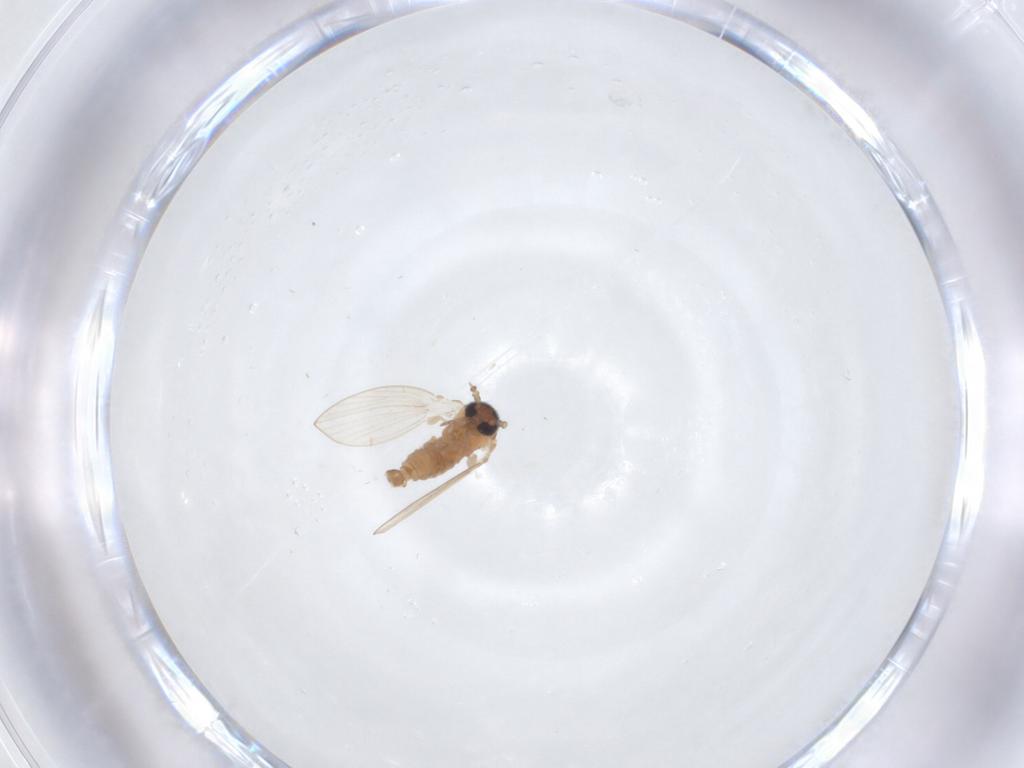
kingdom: Animalia
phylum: Arthropoda
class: Insecta
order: Diptera
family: Psychodidae
